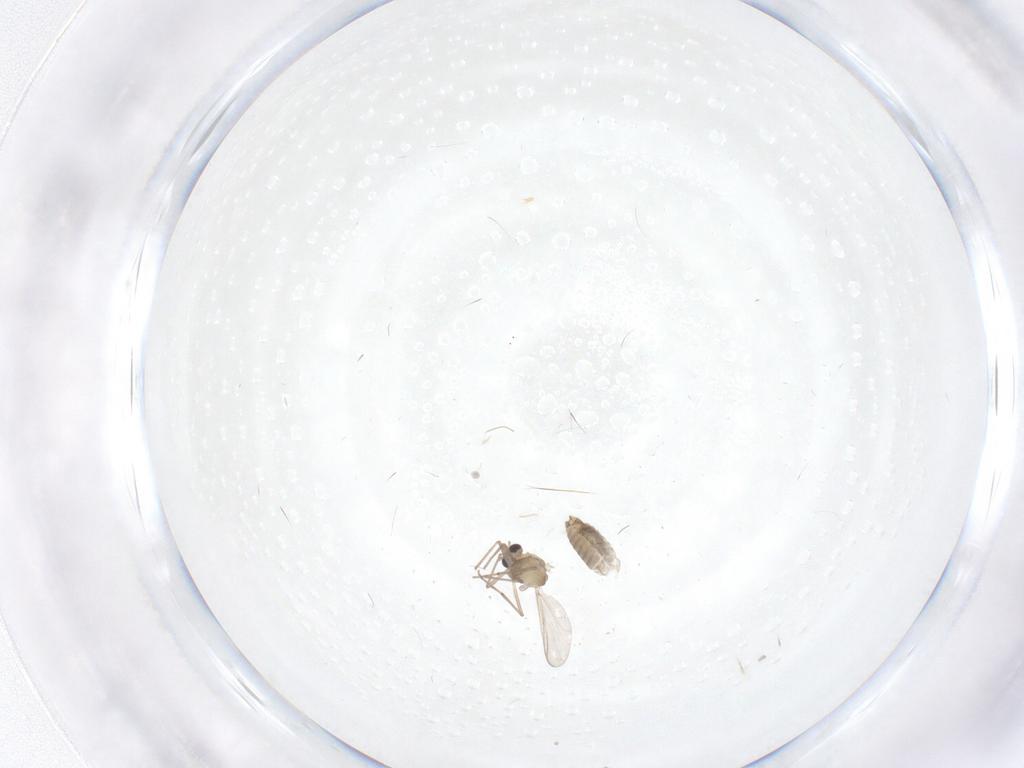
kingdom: Animalia
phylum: Arthropoda
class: Insecta
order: Diptera
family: Chironomidae
